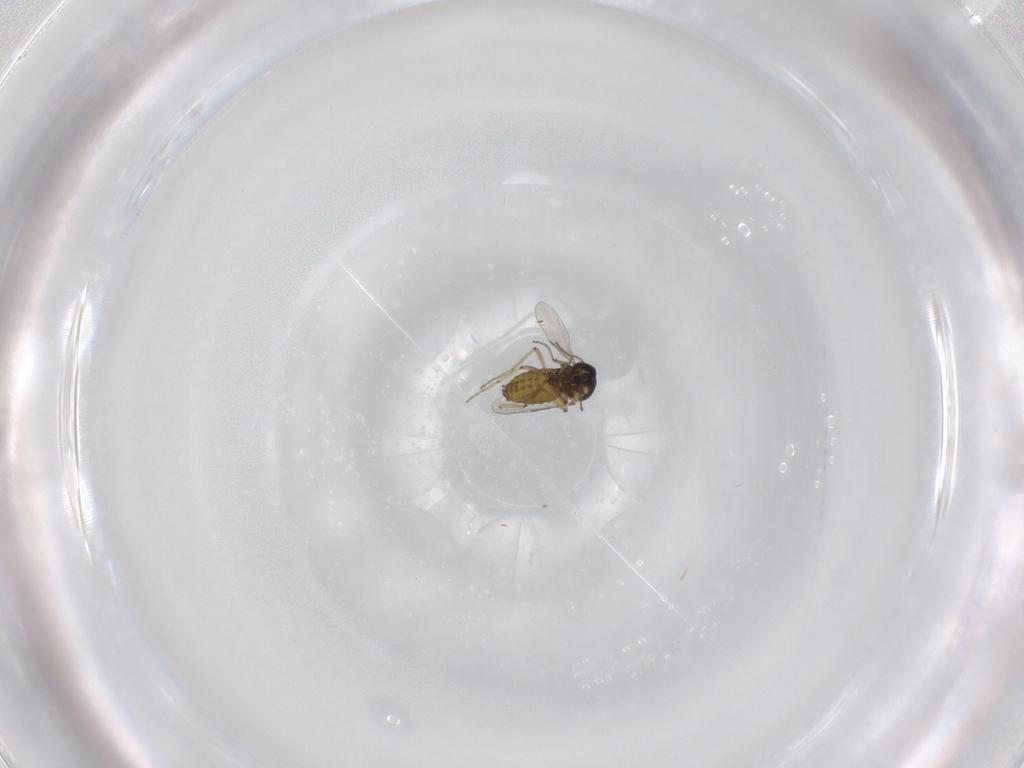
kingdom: Animalia
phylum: Arthropoda
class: Insecta
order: Diptera
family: Ceratopogonidae
